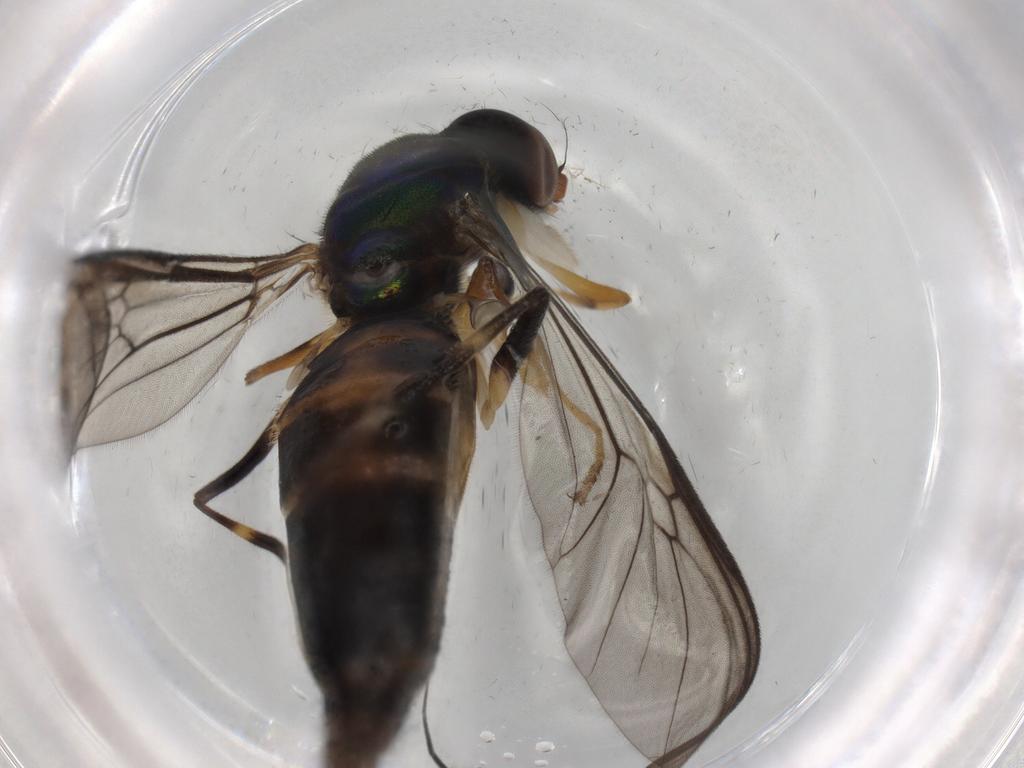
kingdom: Animalia
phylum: Arthropoda
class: Insecta
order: Diptera
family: Chironomidae
